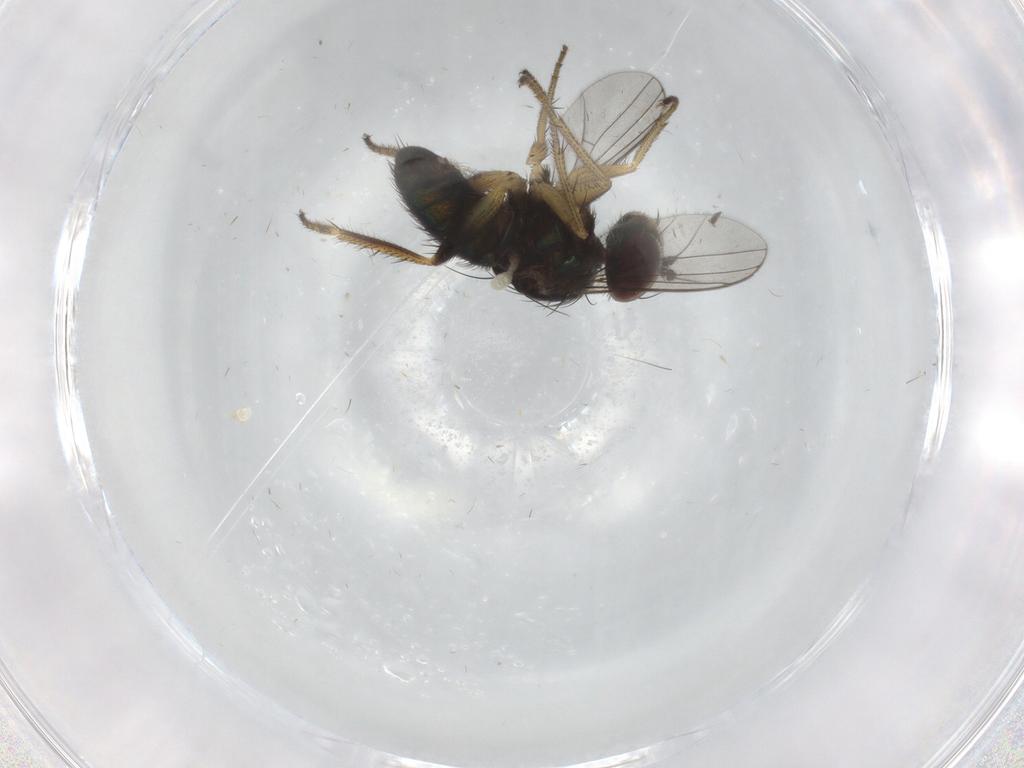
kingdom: Animalia
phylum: Arthropoda
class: Insecta
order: Diptera
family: Dolichopodidae
